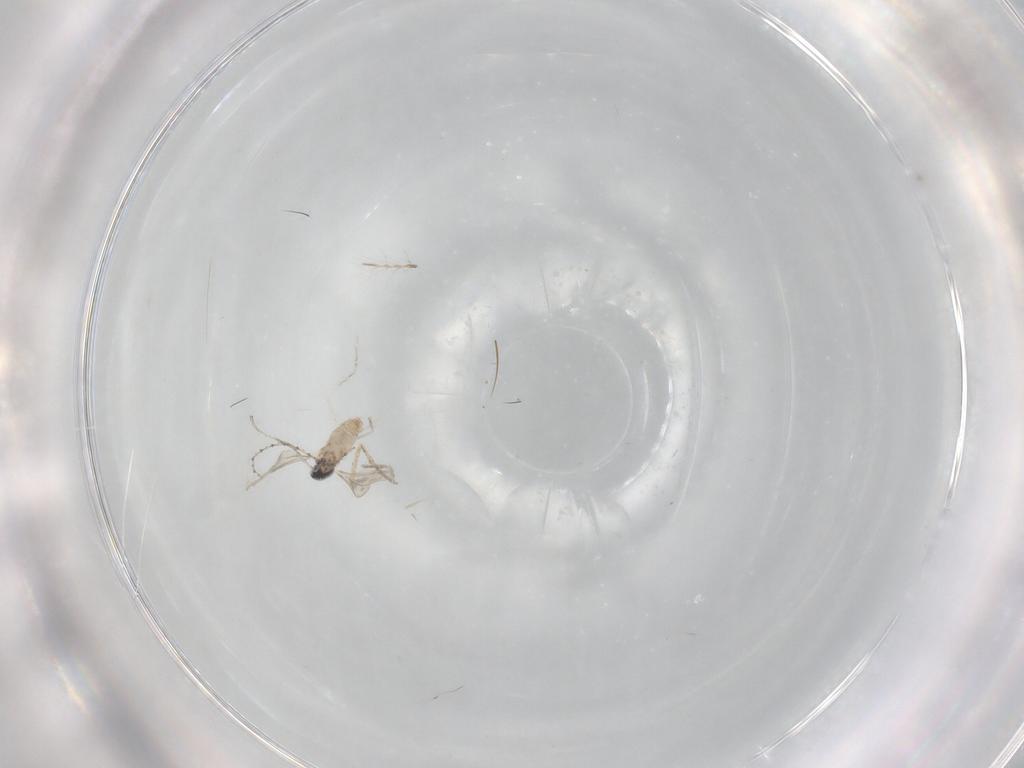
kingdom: Animalia
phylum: Arthropoda
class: Insecta
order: Diptera
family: Cecidomyiidae
